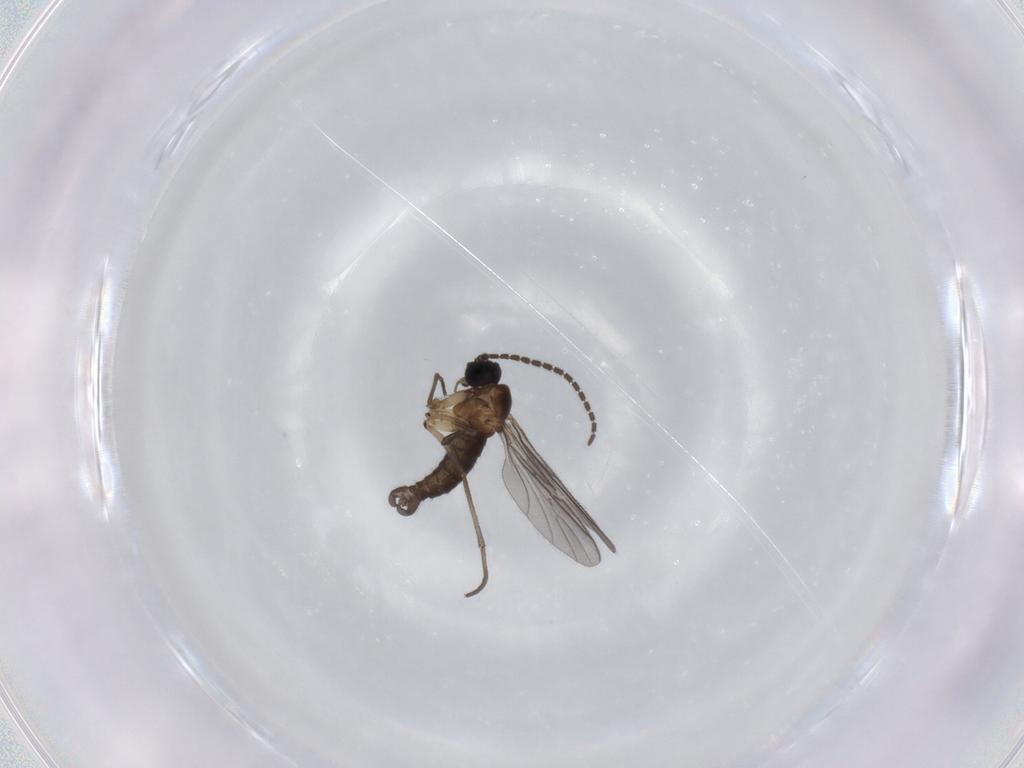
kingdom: Animalia
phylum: Arthropoda
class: Insecta
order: Diptera
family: Sciaridae
